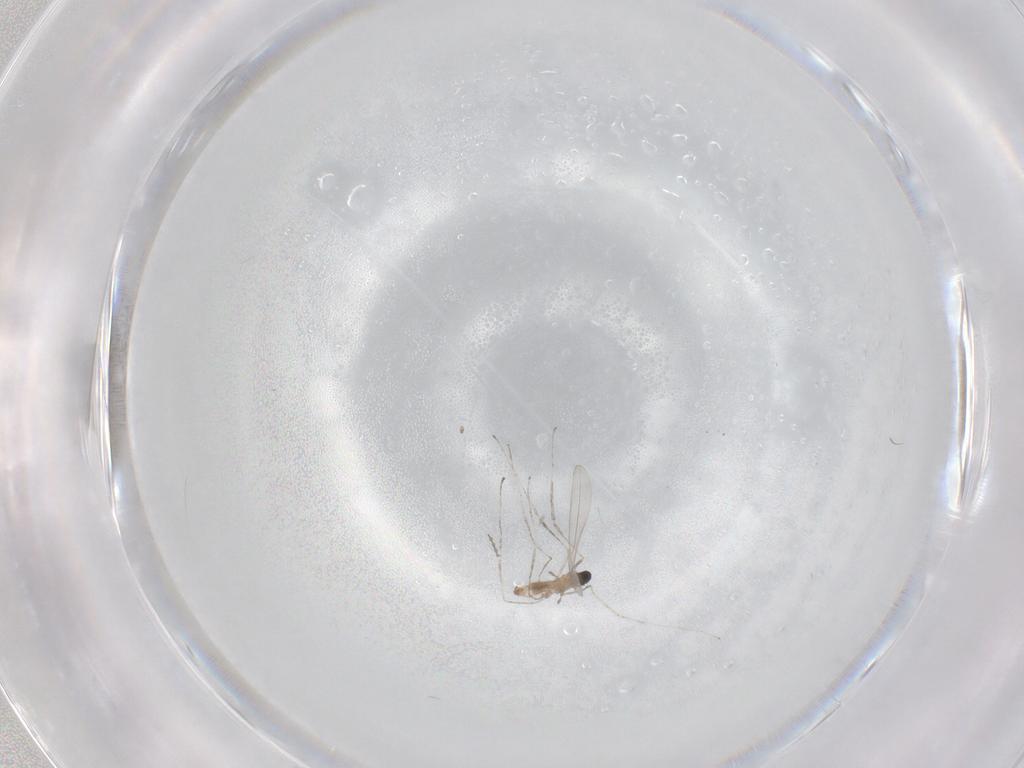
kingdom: Animalia
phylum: Arthropoda
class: Insecta
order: Diptera
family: Cecidomyiidae
